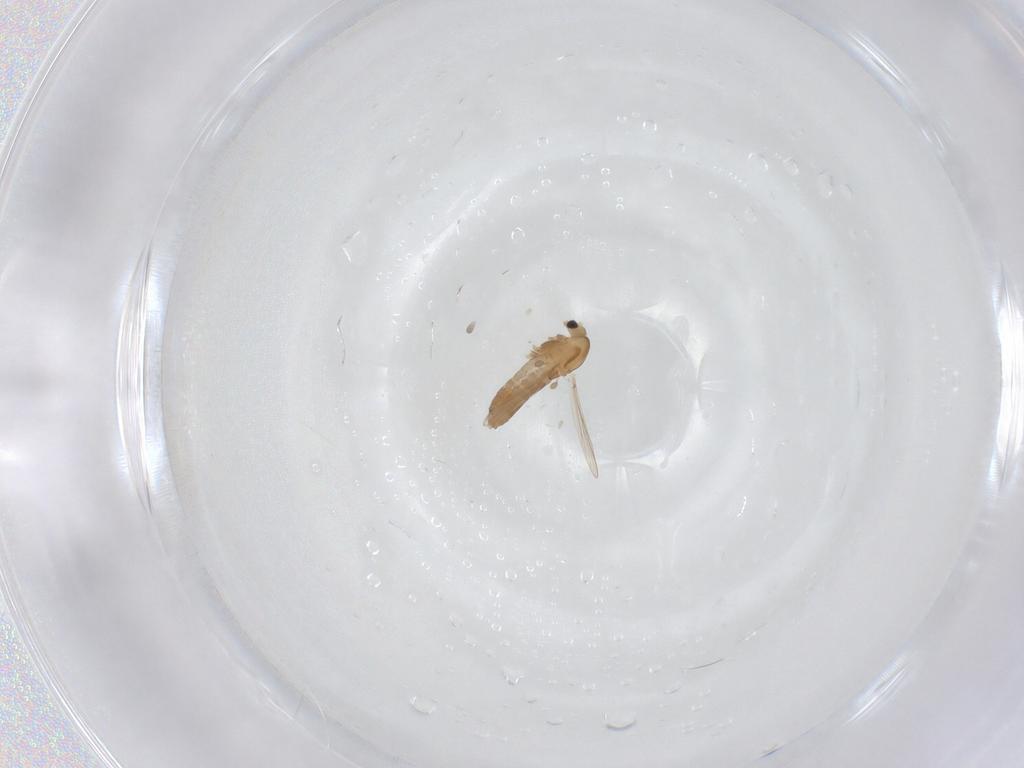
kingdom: Animalia
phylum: Arthropoda
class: Insecta
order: Diptera
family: Chironomidae
